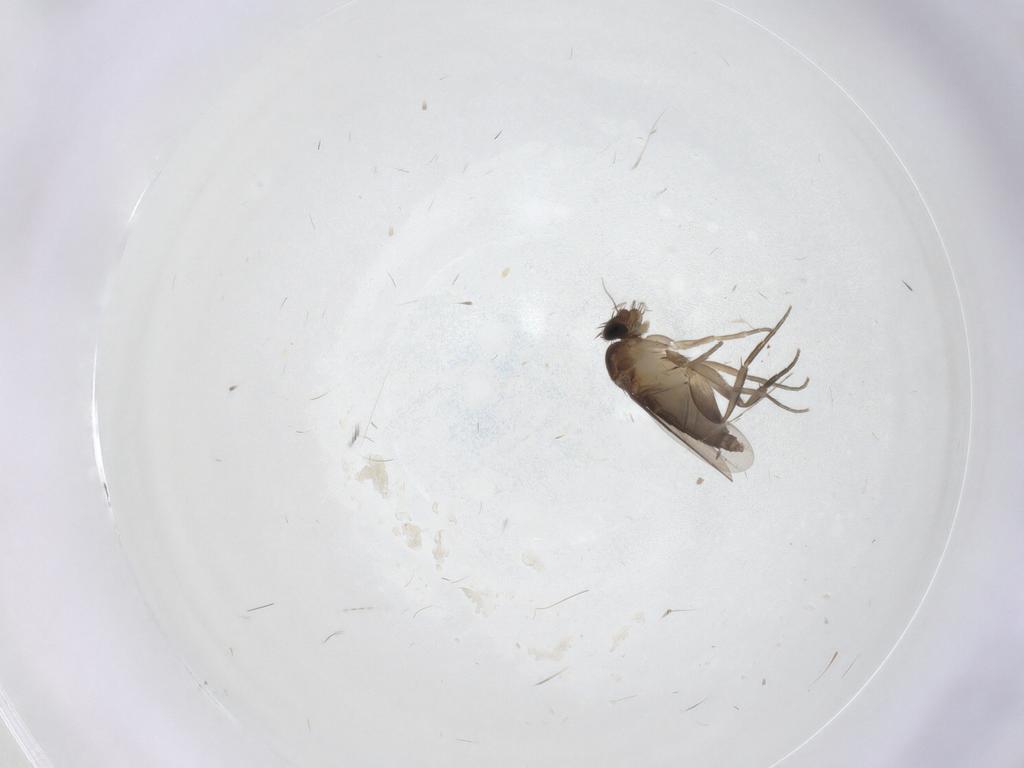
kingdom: Animalia
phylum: Arthropoda
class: Insecta
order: Diptera
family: Phoridae
